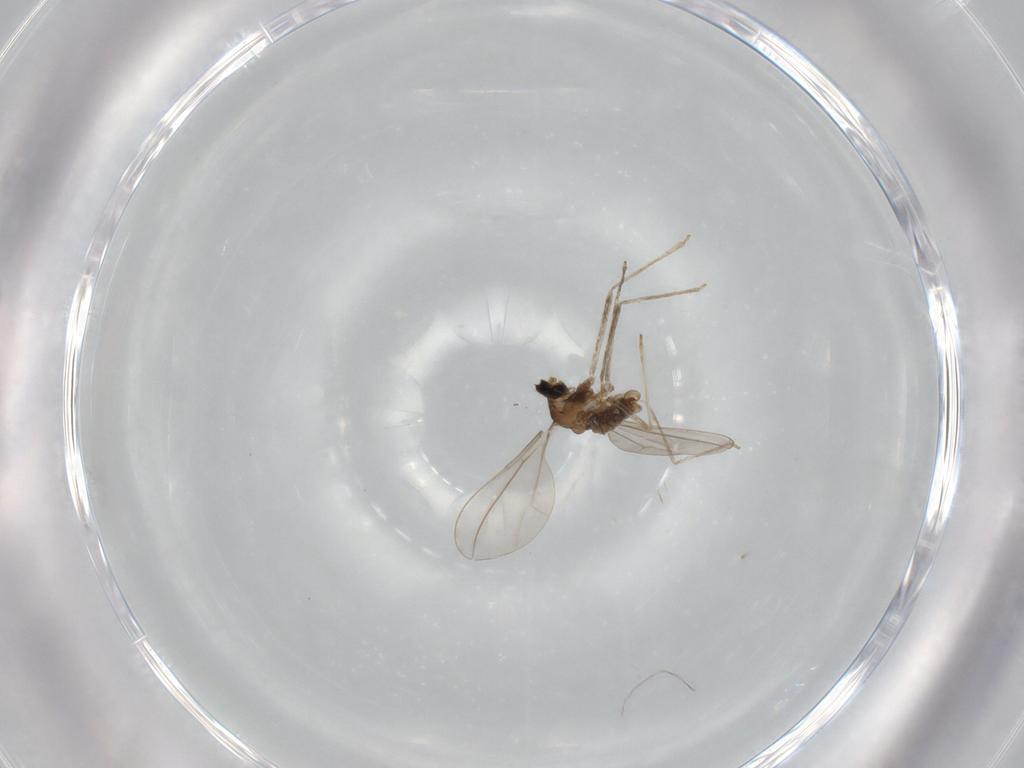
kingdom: Animalia
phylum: Arthropoda
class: Insecta
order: Diptera
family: Cecidomyiidae
